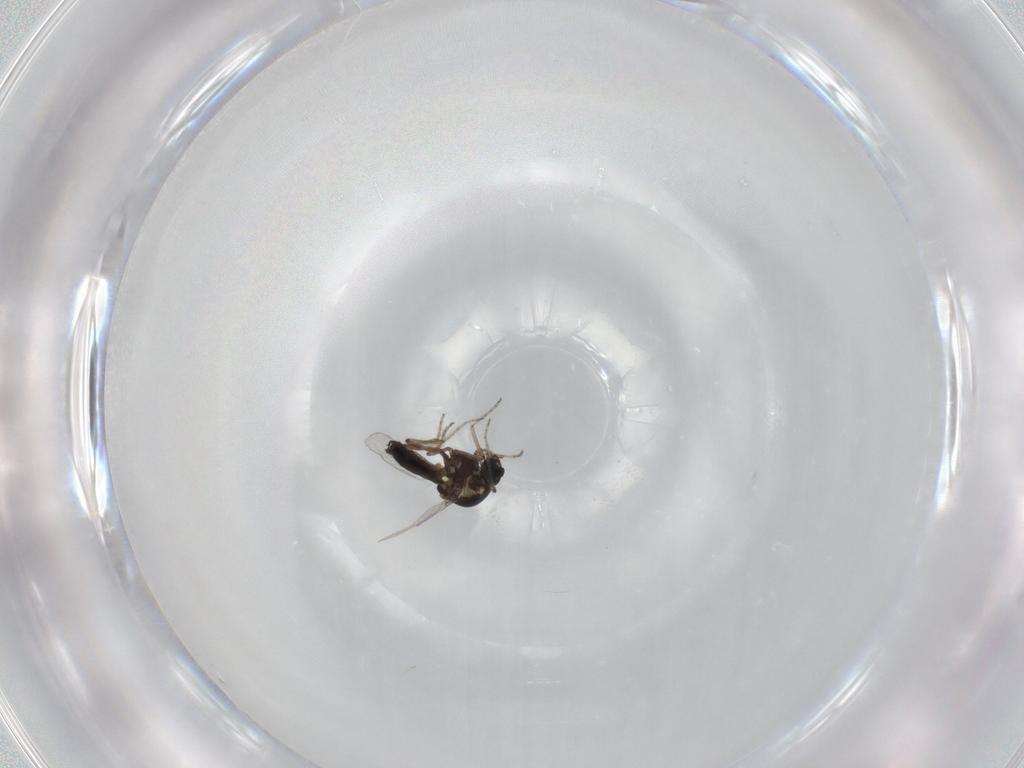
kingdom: Animalia
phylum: Arthropoda
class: Insecta
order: Diptera
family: Ceratopogonidae
